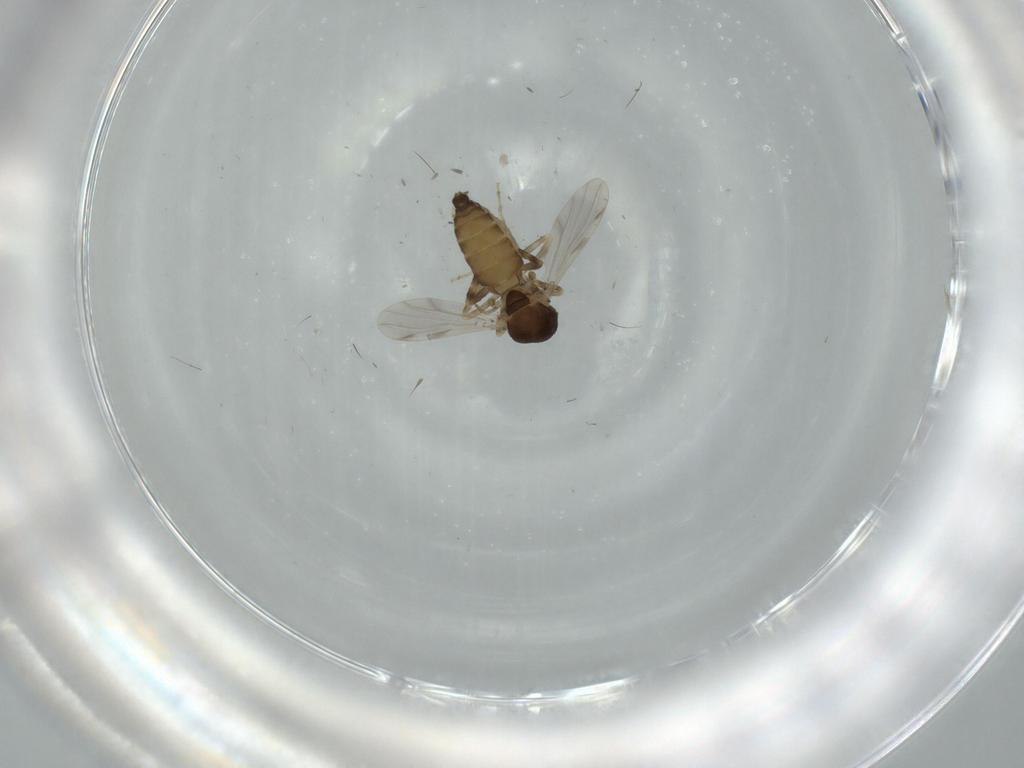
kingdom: Animalia
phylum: Arthropoda
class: Insecta
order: Diptera
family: Ceratopogonidae
